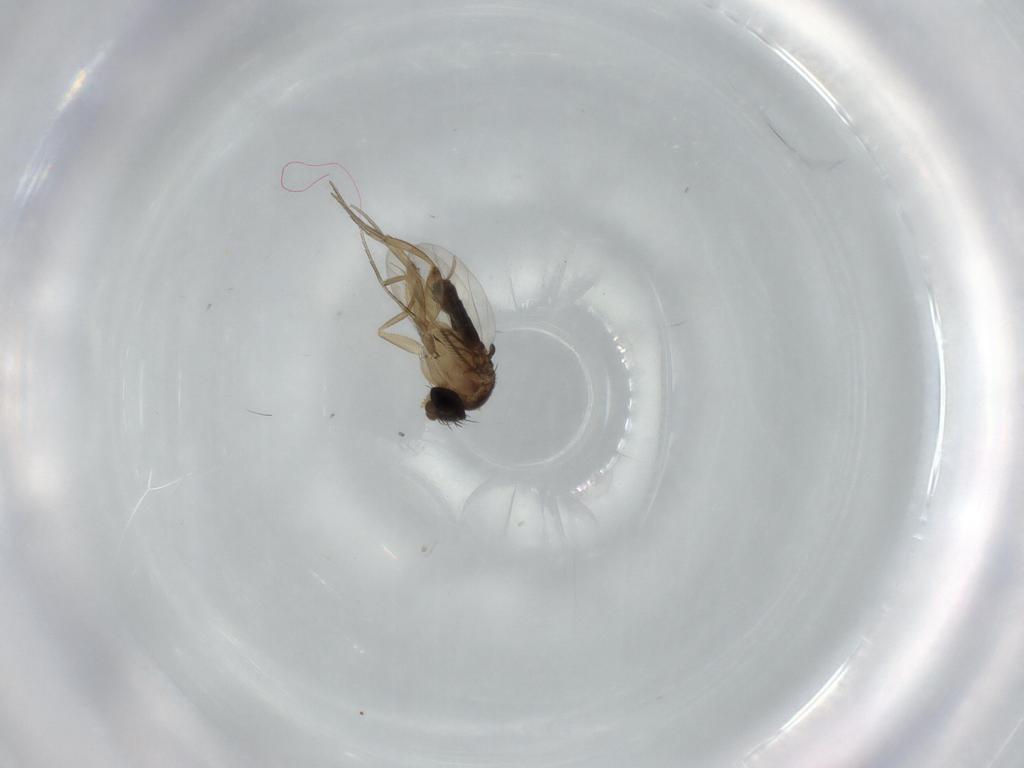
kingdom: Animalia
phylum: Arthropoda
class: Insecta
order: Diptera
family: Phoridae
